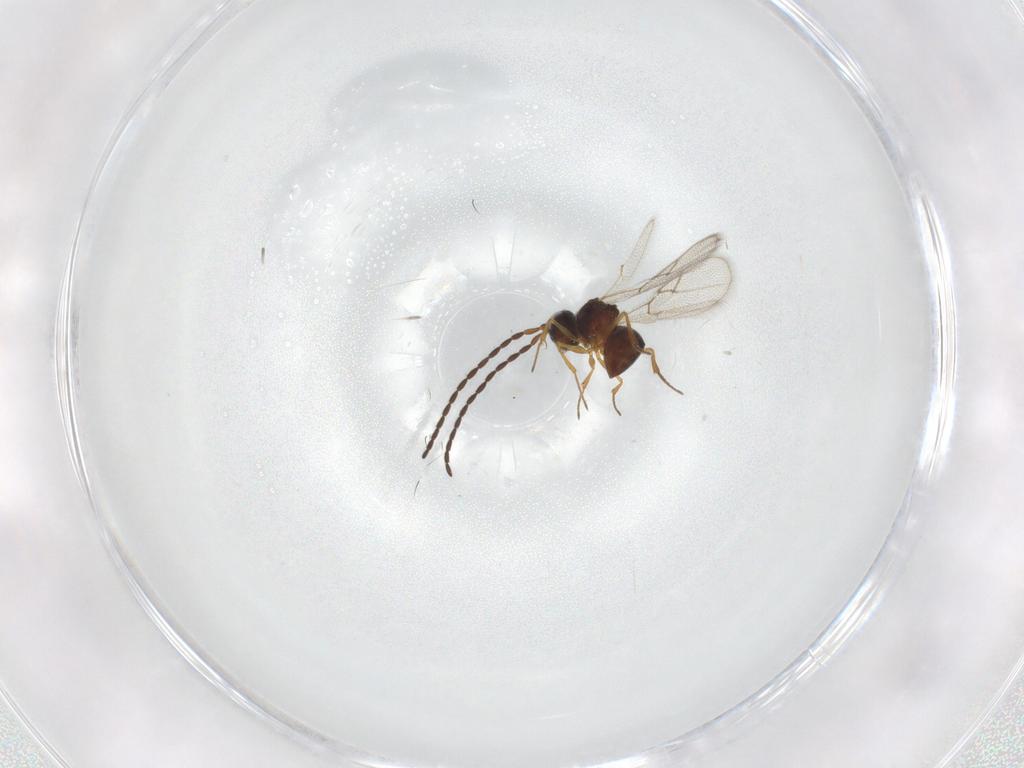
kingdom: Animalia
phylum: Arthropoda
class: Insecta
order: Hymenoptera
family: Figitidae
